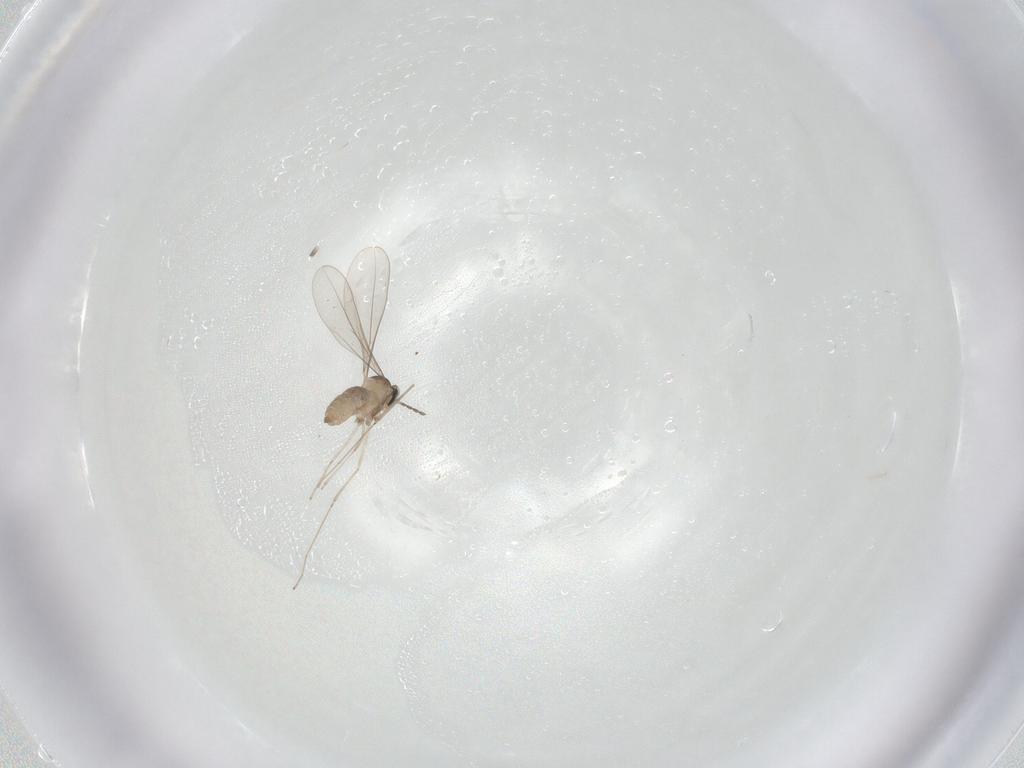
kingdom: Animalia
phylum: Arthropoda
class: Insecta
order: Diptera
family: Cecidomyiidae
